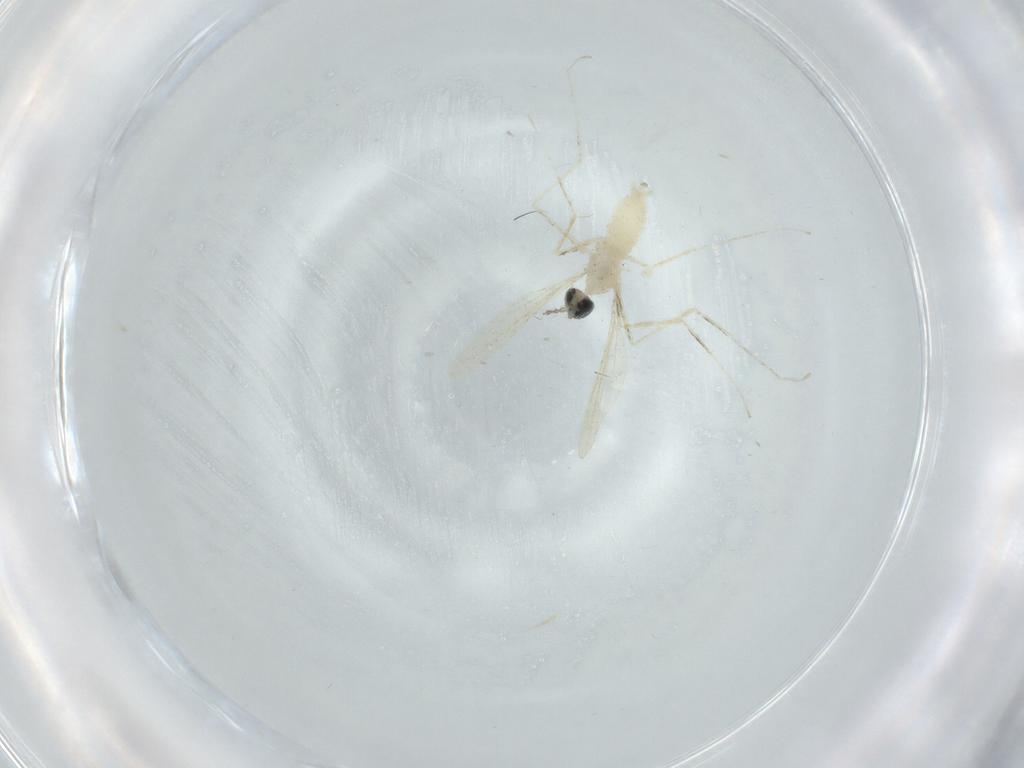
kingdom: Animalia
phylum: Arthropoda
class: Insecta
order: Diptera
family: Cecidomyiidae
